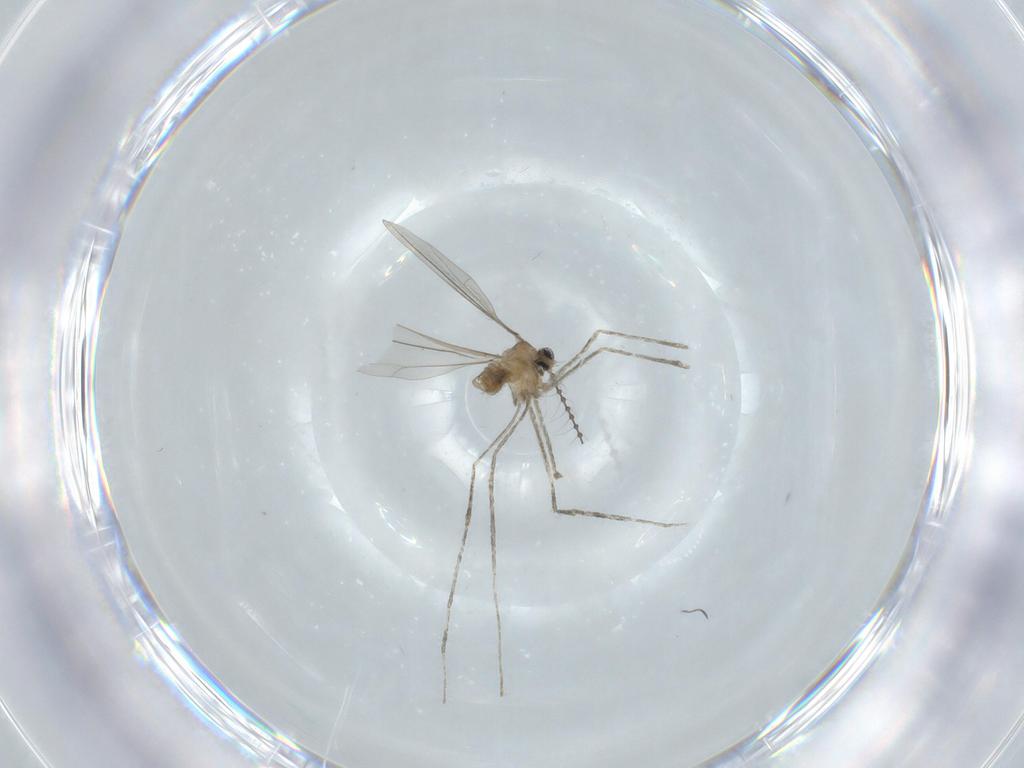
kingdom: Animalia
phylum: Arthropoda
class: Insecta
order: Diptera
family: Cecidomyiidae
